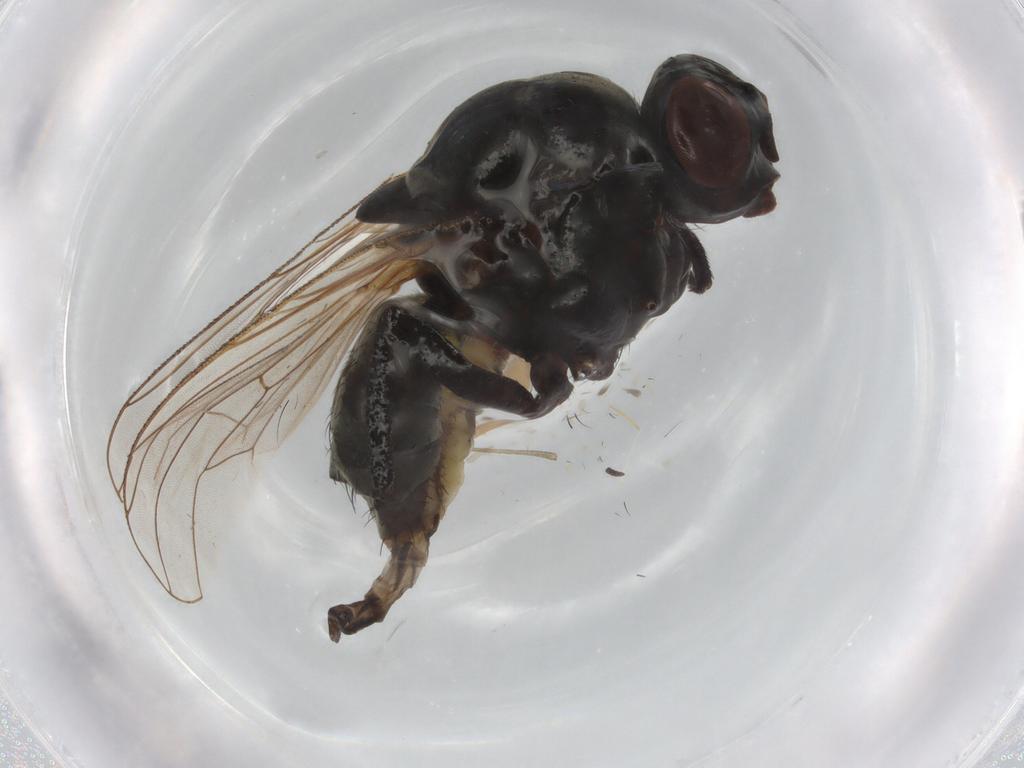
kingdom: Animalia
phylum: Arthropoda
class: Insecta
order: Diptera
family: Anthomyiidae
